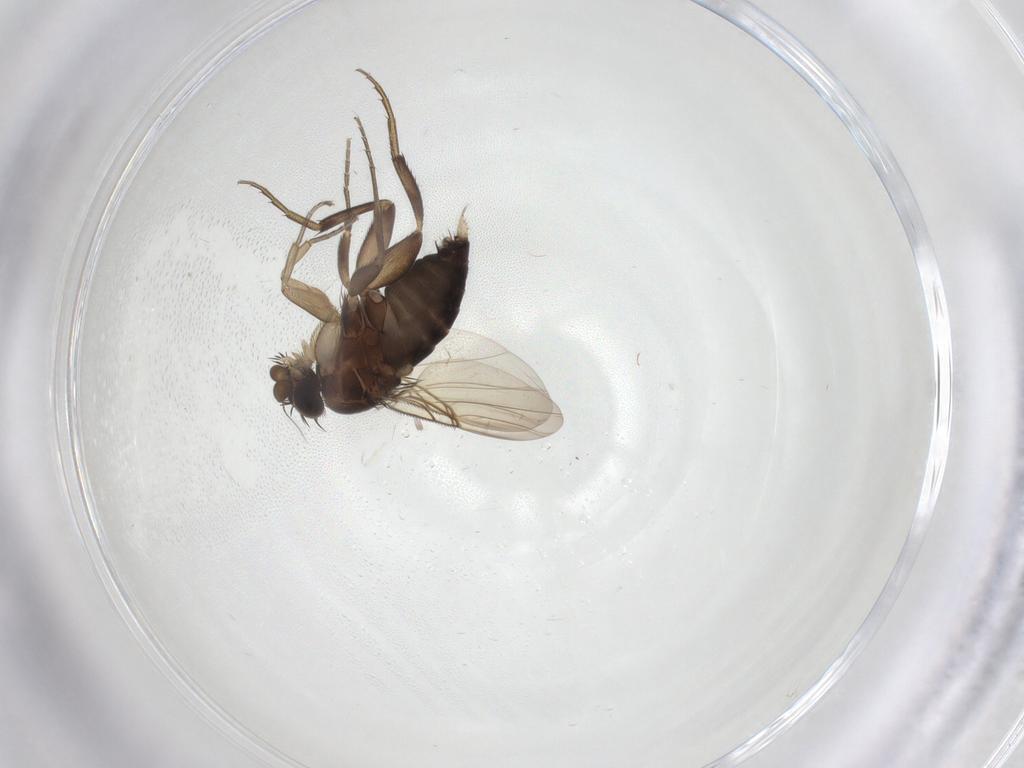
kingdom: Animalia
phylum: Arthropoda
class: Insecta
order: Diptera
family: Phoridae
